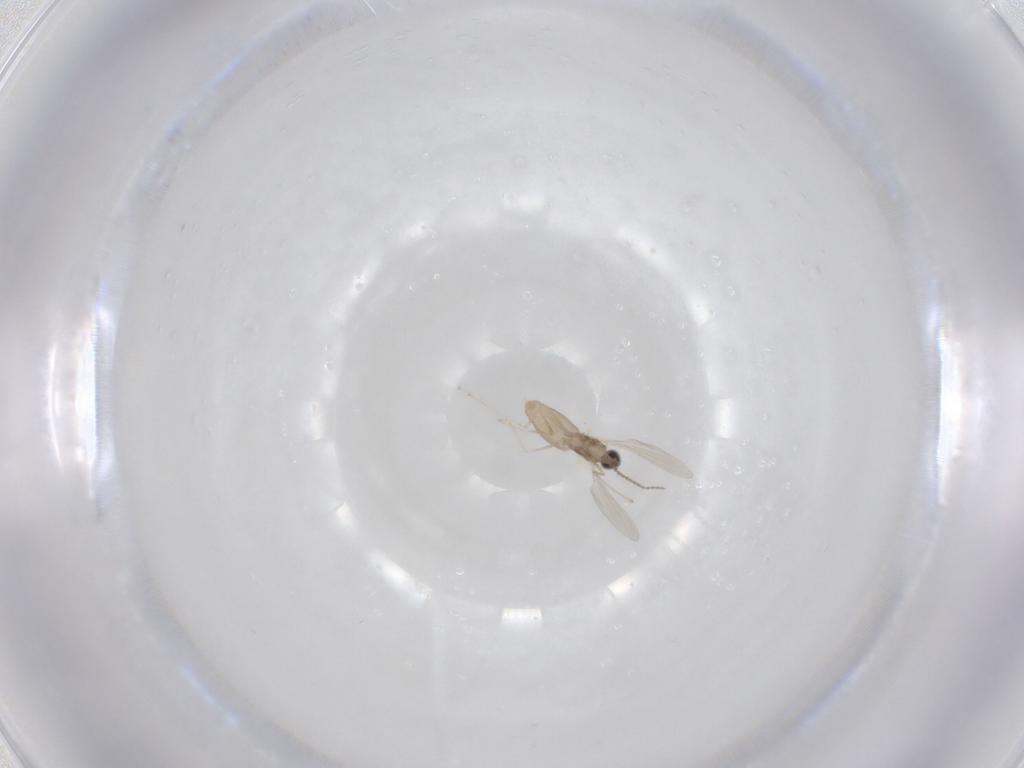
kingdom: Animalia
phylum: Arthropoda
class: Insecta
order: Diptera
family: Cecidomyiidae
